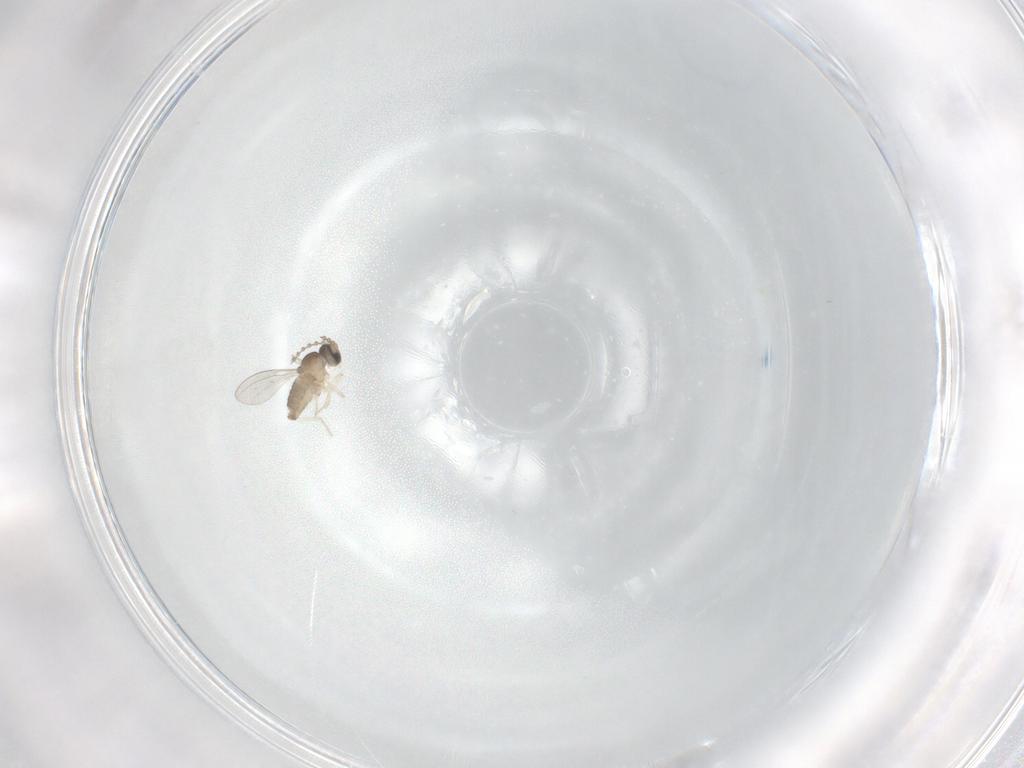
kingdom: Animalia
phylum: Arthropoda
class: Insecta
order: Diptera
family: Cecidomyiidae
